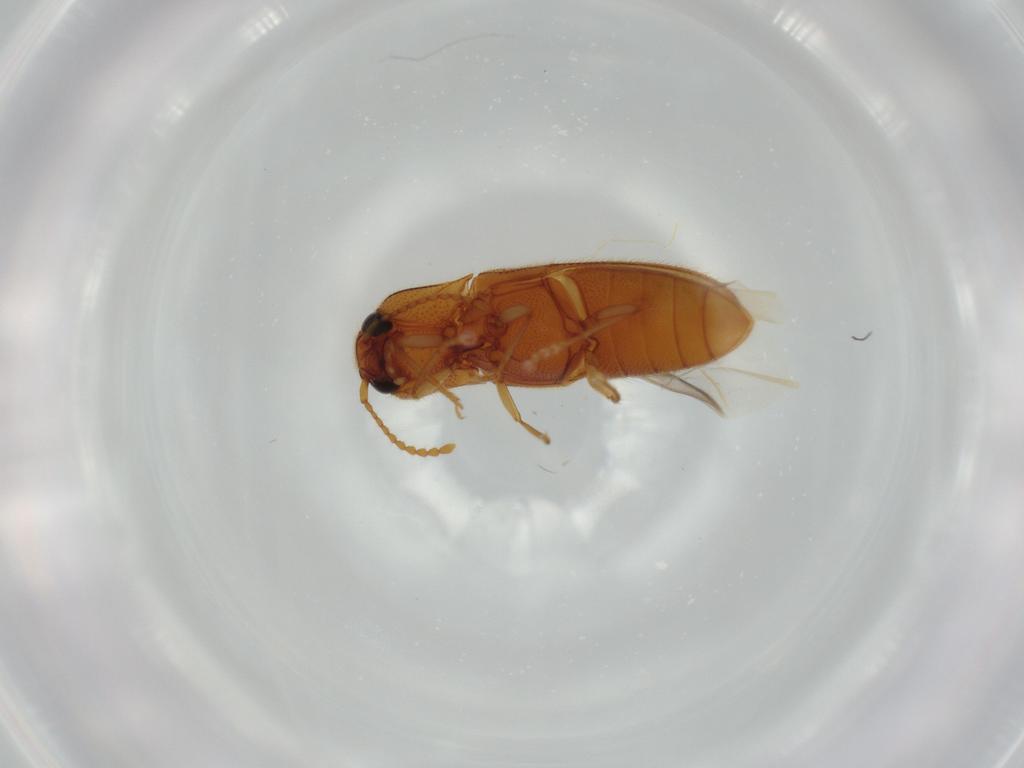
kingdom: Animalia
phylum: Arthropoda
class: Insecta
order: Coleoptera
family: Elateridae
